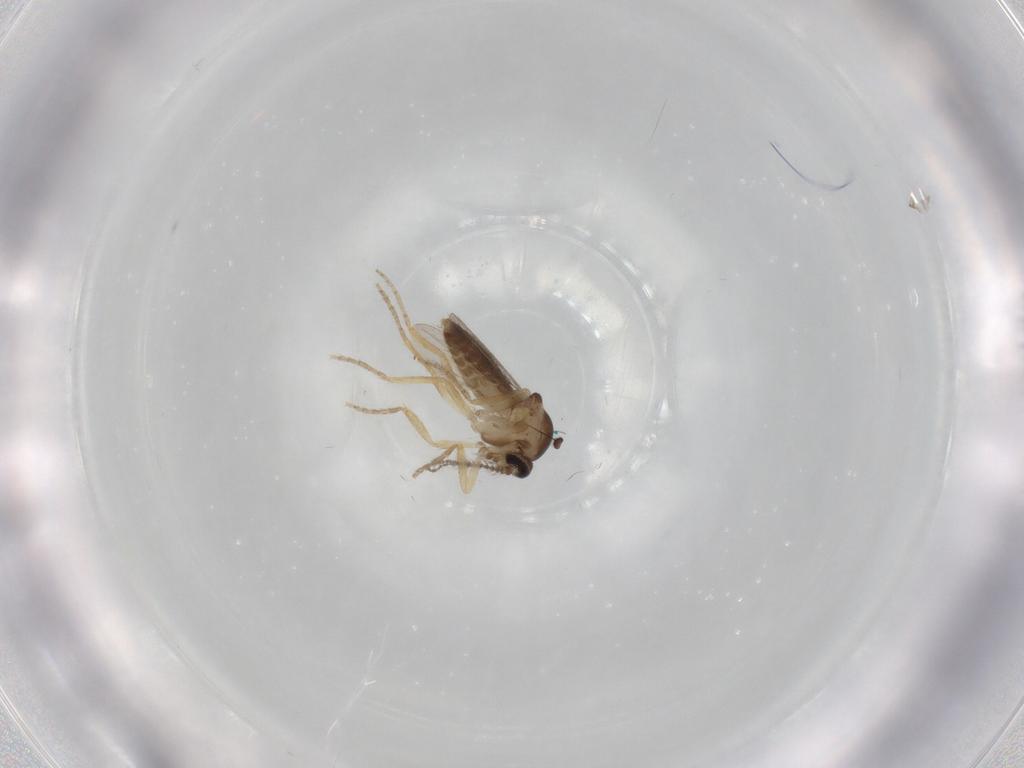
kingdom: Animalia
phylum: Arthropoda
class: Insecta
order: Diptera
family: Ceratopogonidae
